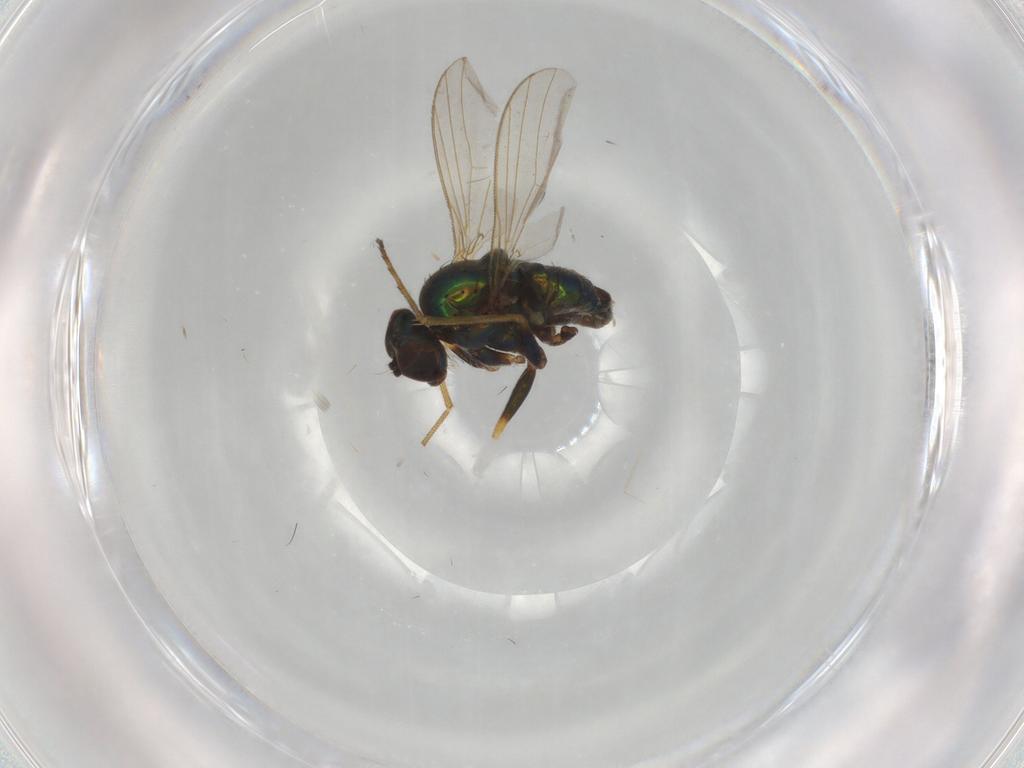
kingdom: Animalia
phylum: Arthropoda
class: Insecta
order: Diptera
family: Dolichopodidae
